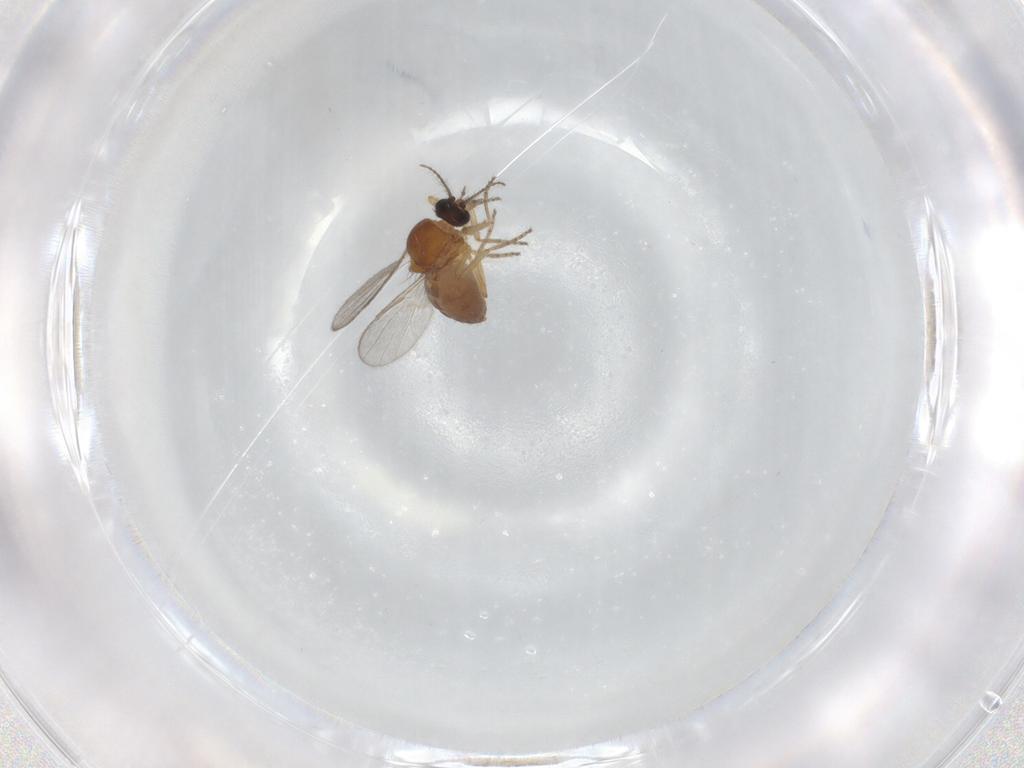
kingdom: Animalia
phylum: Arthropoda
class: Insecta
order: Diptera
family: Ceratopogonidae
